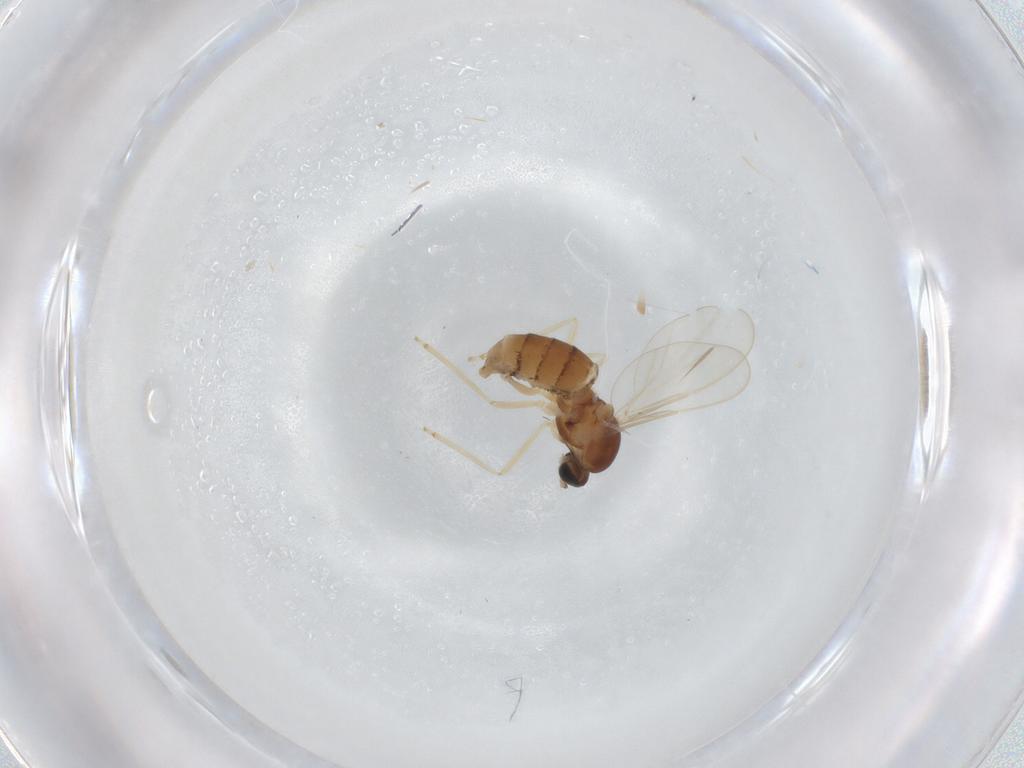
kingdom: Animalia
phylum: Arthropoda
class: Insecta
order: Diptera
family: Cecidomyiidae
